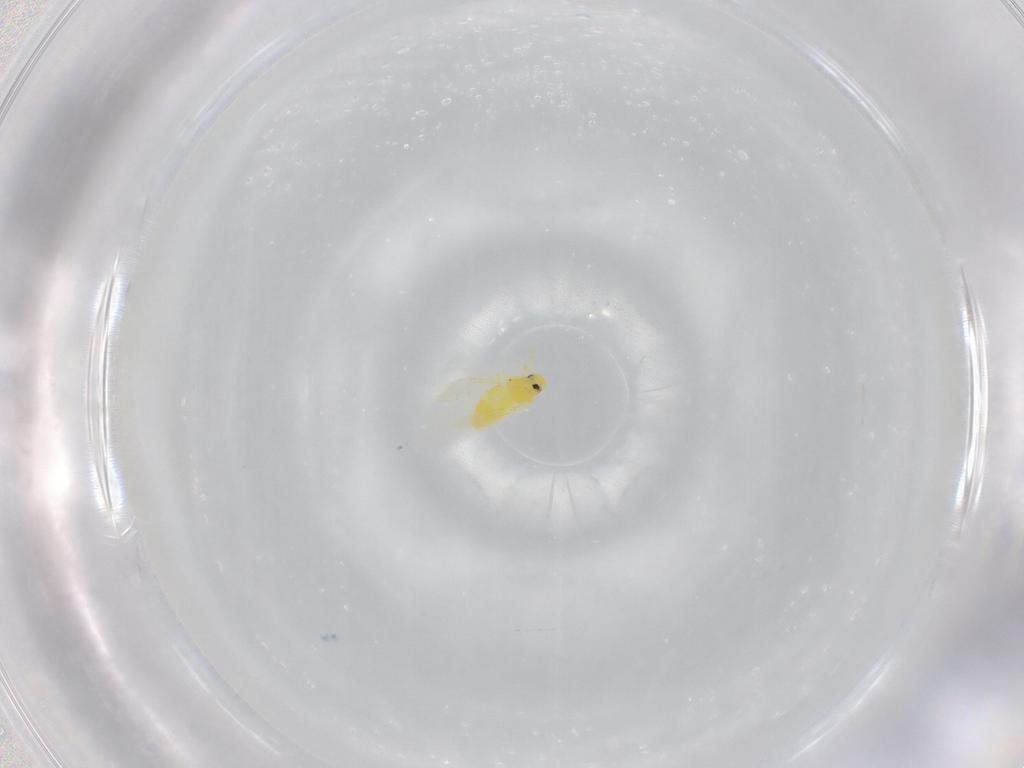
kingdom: Animalia
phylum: Arthropoda
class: Insecta
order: Hemiptera
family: Aleyrodidae
